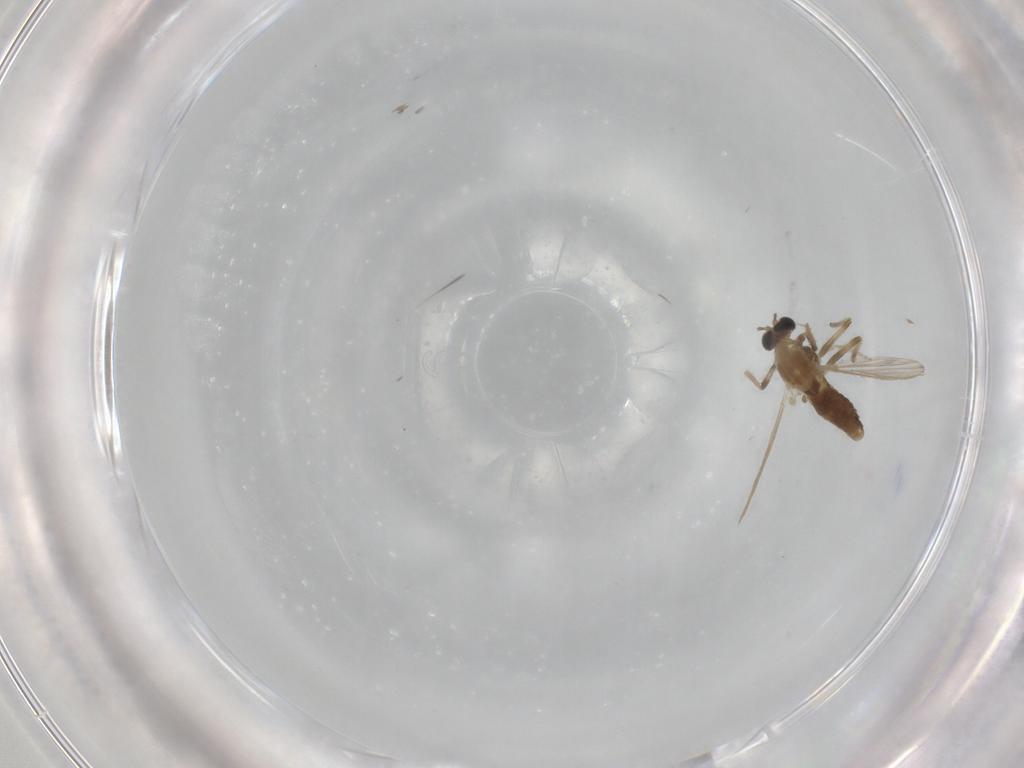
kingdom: Animalia
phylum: Arthropoda
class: Insecta
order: Diptera
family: Chironomidae
